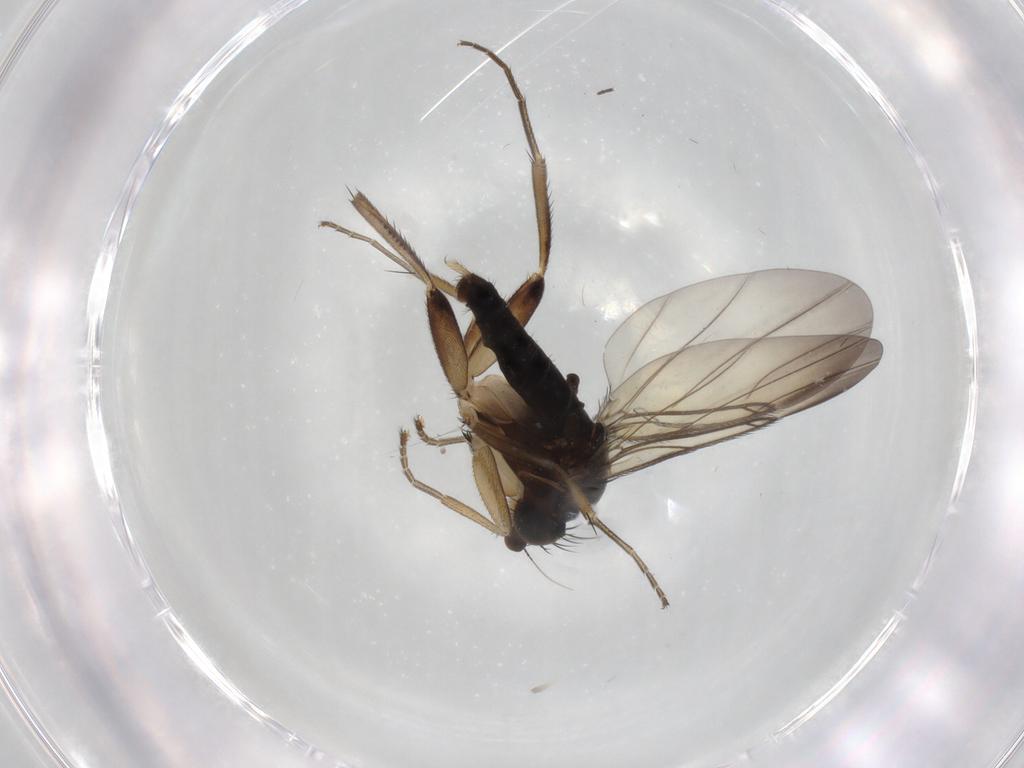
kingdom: Animalia
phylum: Arthropoda
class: Insecta
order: Diptera
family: Phoridae
